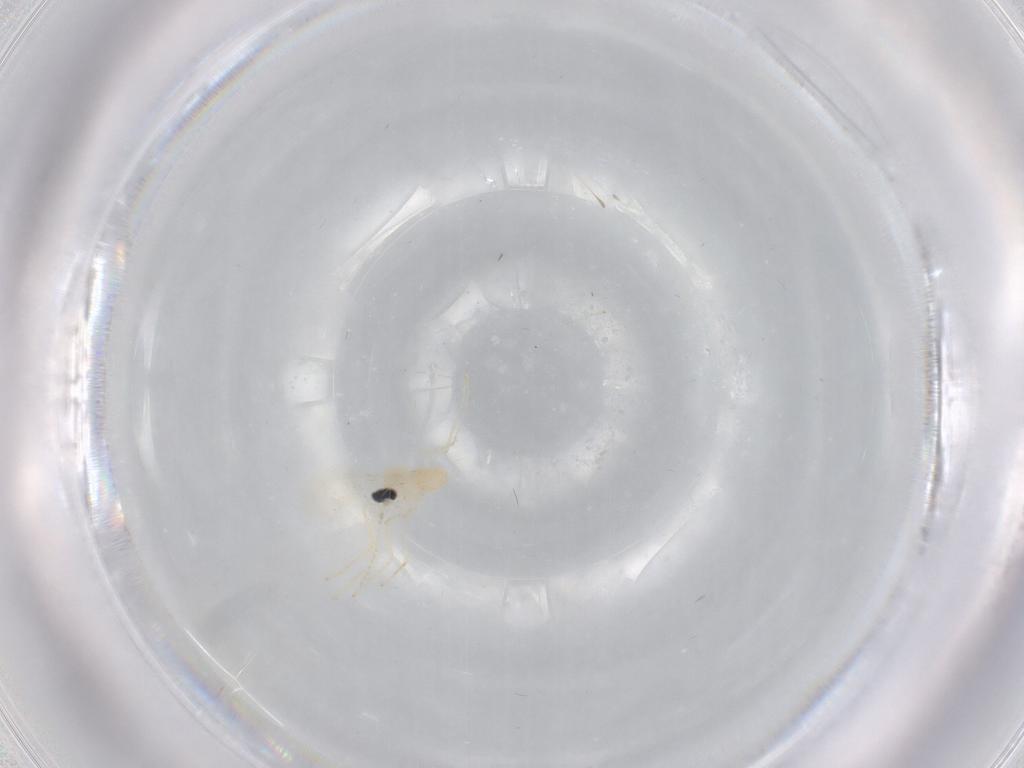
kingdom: Animalia
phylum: Arthropoda
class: Insecta
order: Diptera
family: Cecidomyiidae
